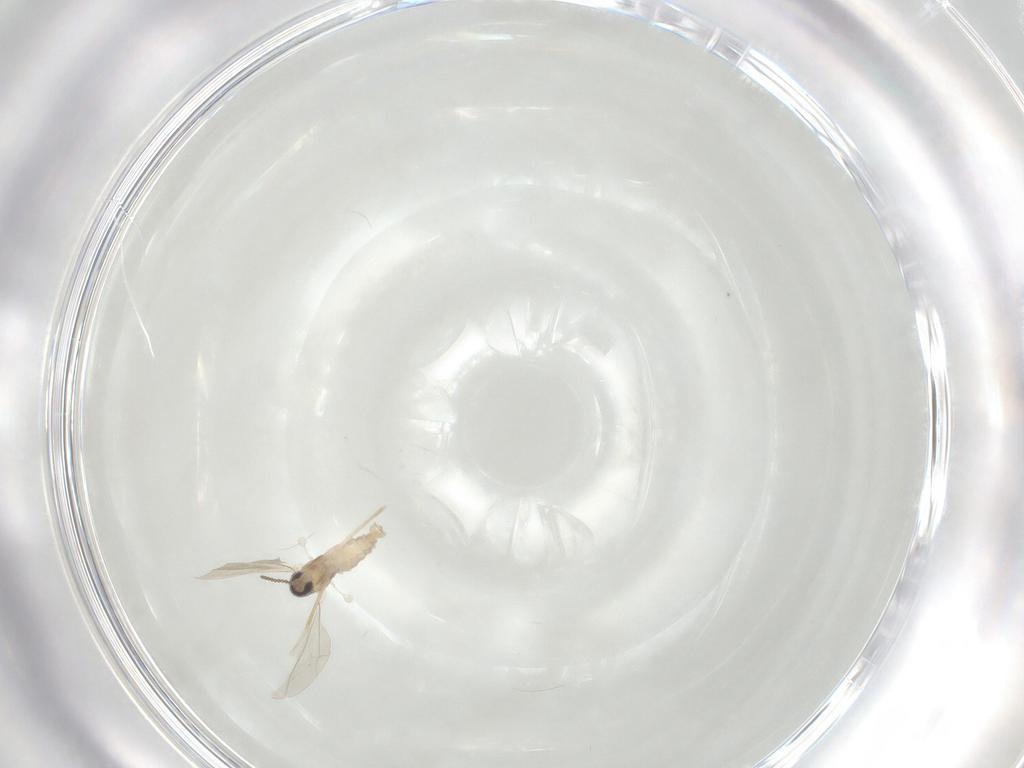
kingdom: Animalia
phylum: Arthropoda
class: Insecta
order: Diptera
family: Cecidomyiidae
